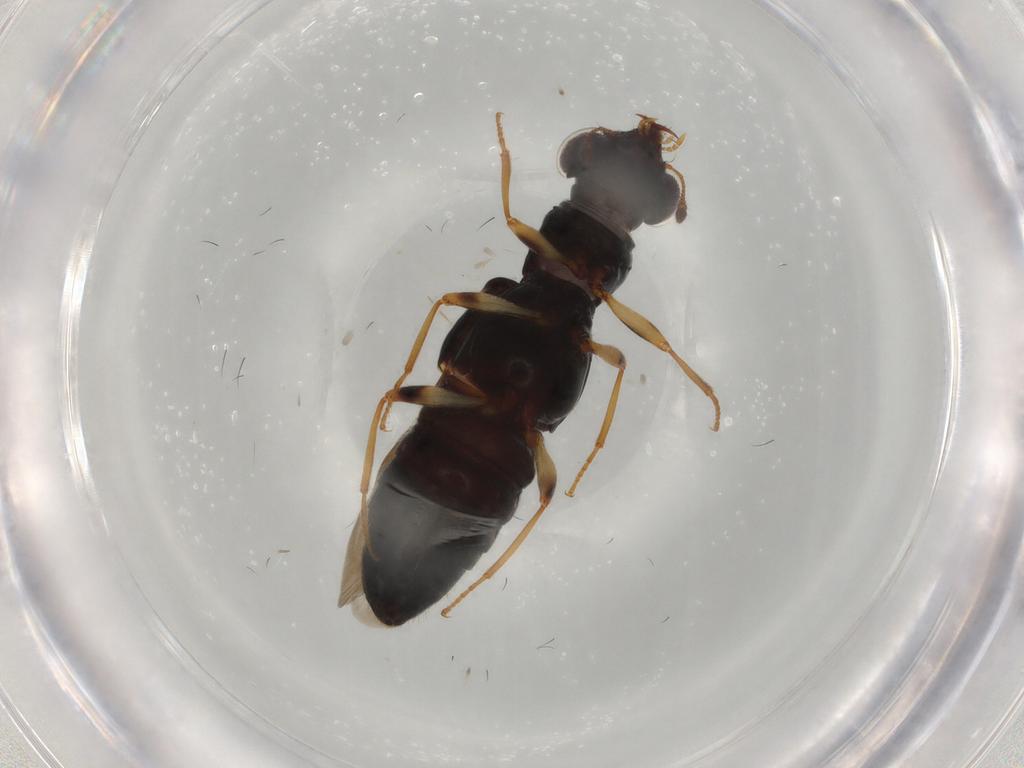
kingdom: Animalia
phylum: Arthropoda
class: Insecta
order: Coleoptera
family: Staphylinidae
